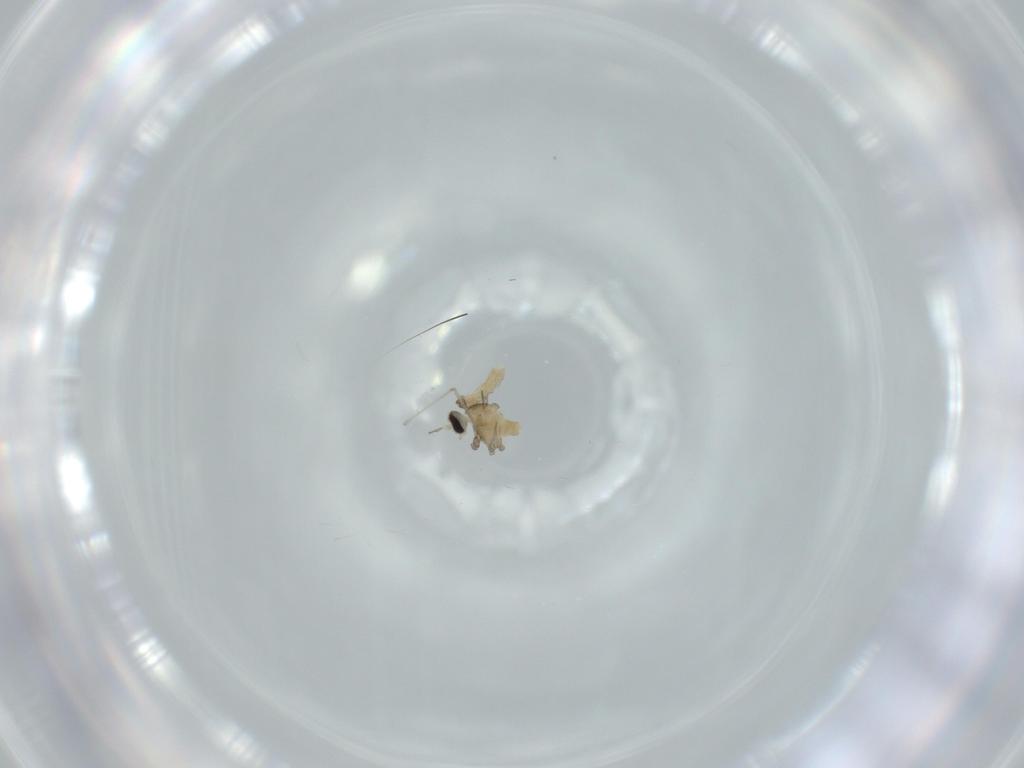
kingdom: Animalia
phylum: Arthropoda
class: Insecta
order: Diptera
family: Cecidomyiidae
